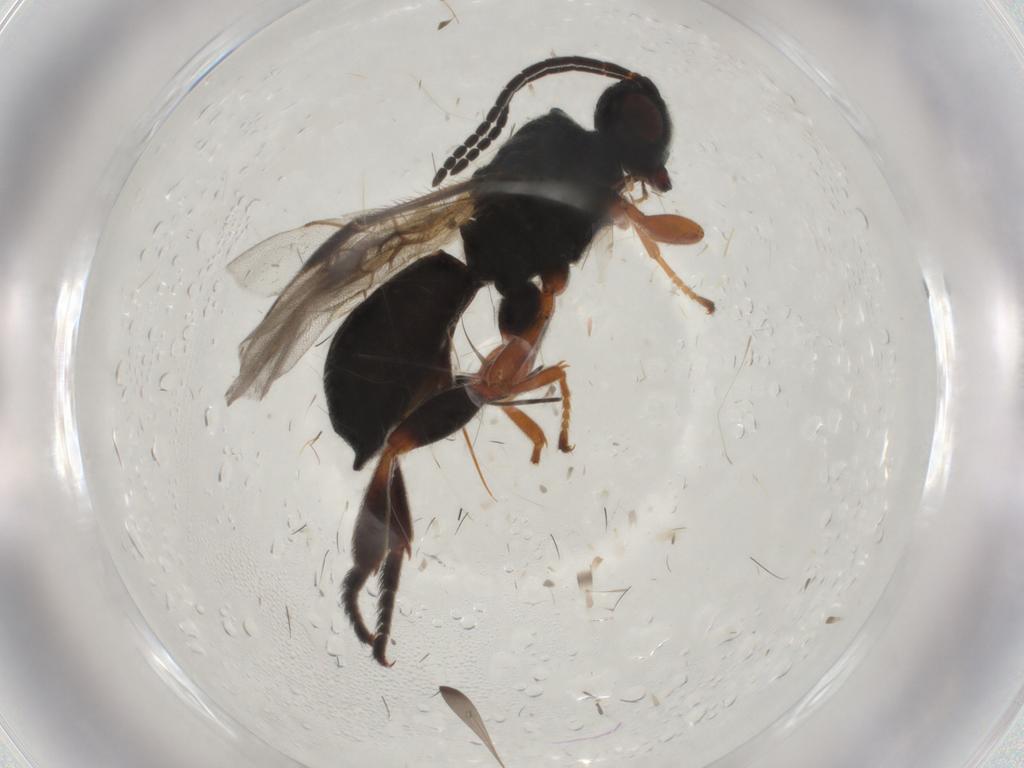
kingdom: Animalia
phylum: Arthropoda
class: Insecta
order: Hymenoptera
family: Braconidae
